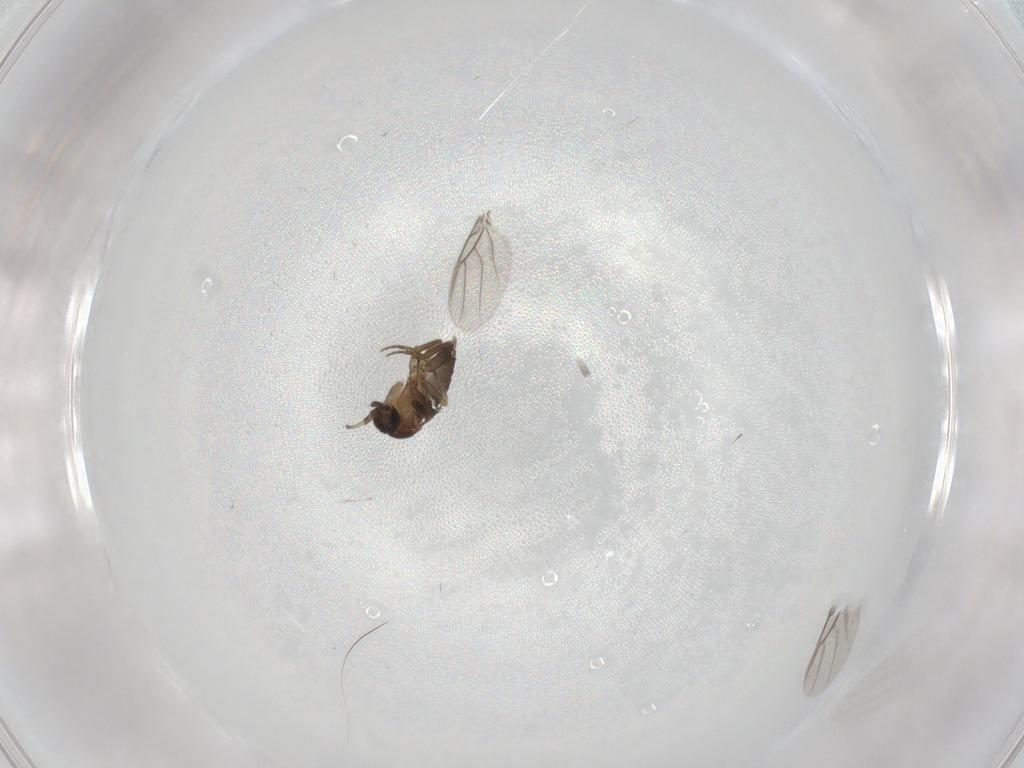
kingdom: Animalia
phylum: Arthropoda
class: Insecta
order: Diptera
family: Phoridae
